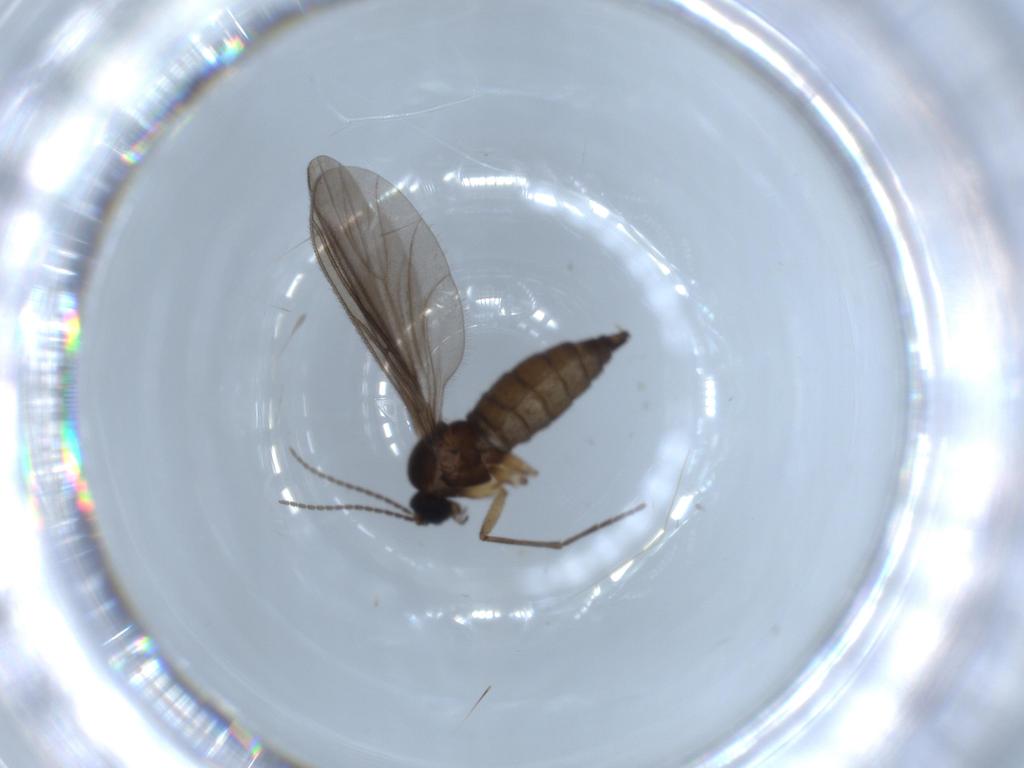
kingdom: Animalia
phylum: Arthropoda
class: Insecta
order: Diptera
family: Sciaridae
